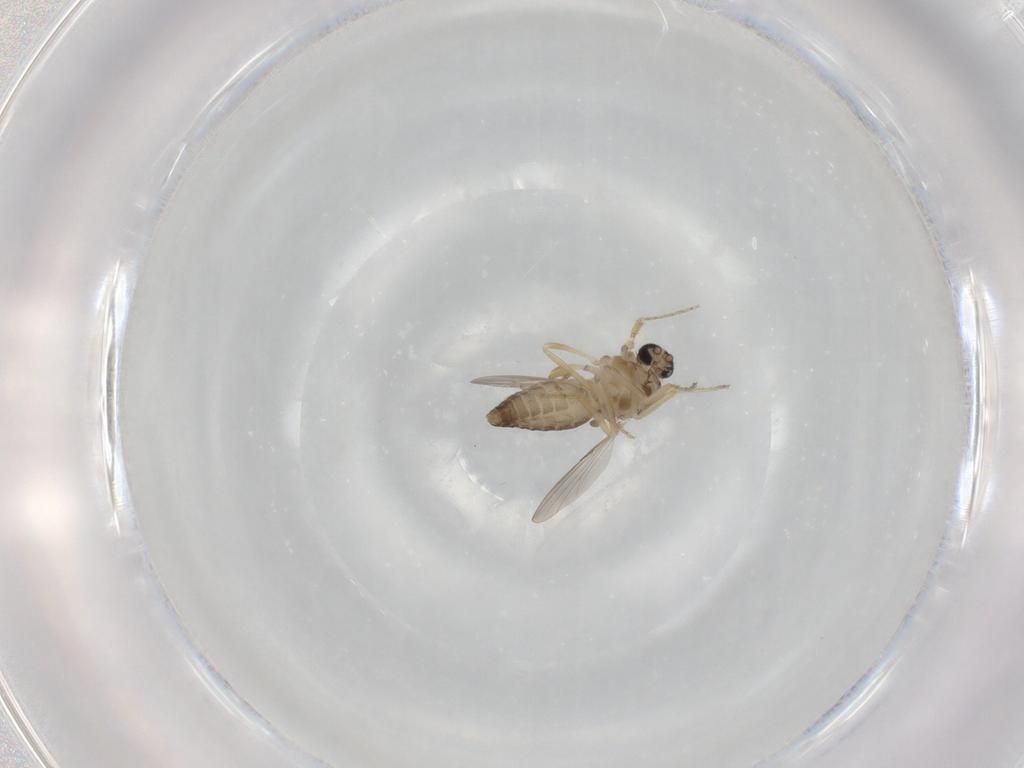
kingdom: Animalia
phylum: Arthropoda
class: Insecta
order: Diptera
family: Ceratopogonidae
